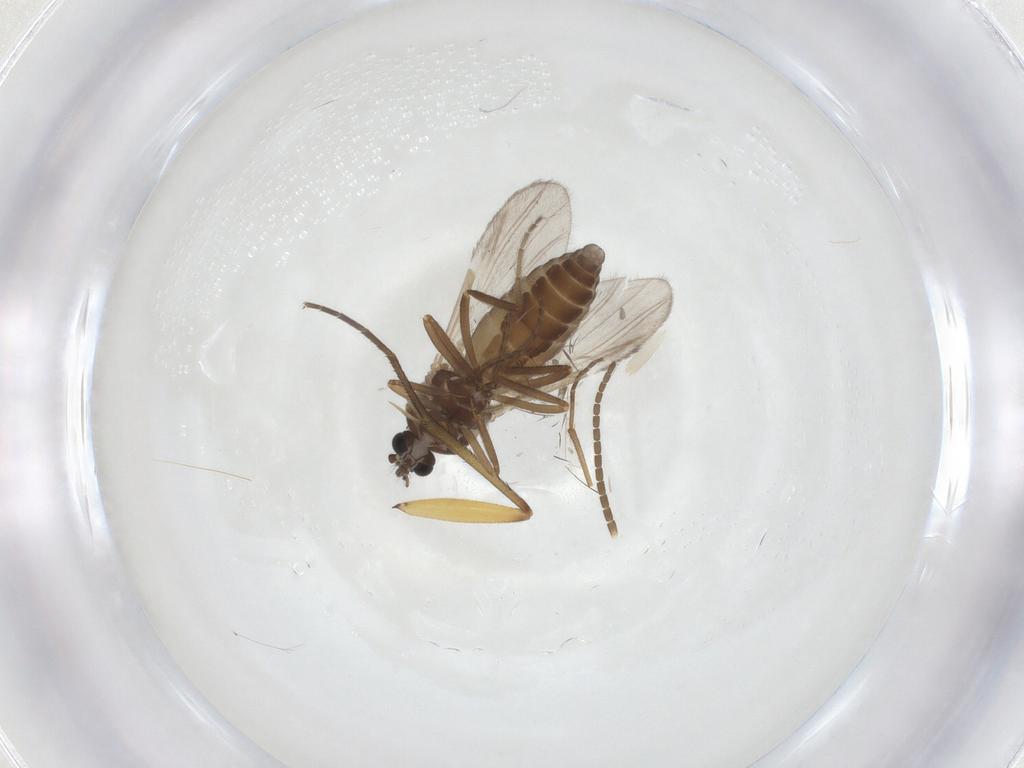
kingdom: Animalia
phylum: Arthropoda
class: Insecta
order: Diptera
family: Ceratopogonidae
